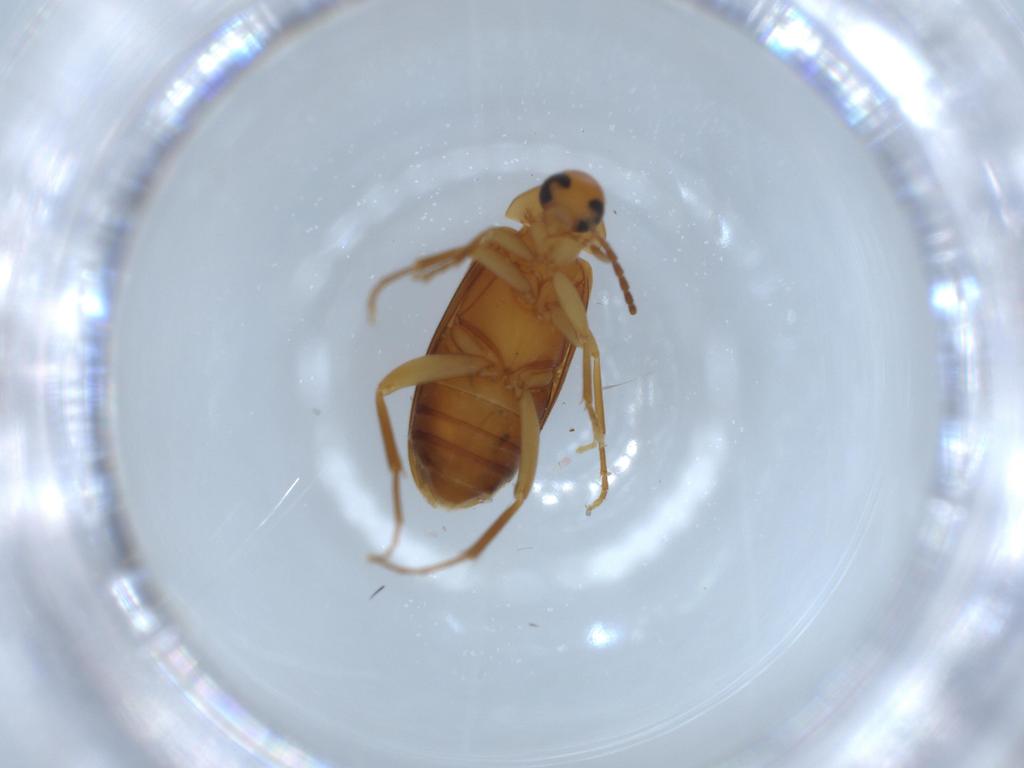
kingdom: Animalia
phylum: Arthropoda
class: Insecta
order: Coleoptera
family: Scraptiidae
